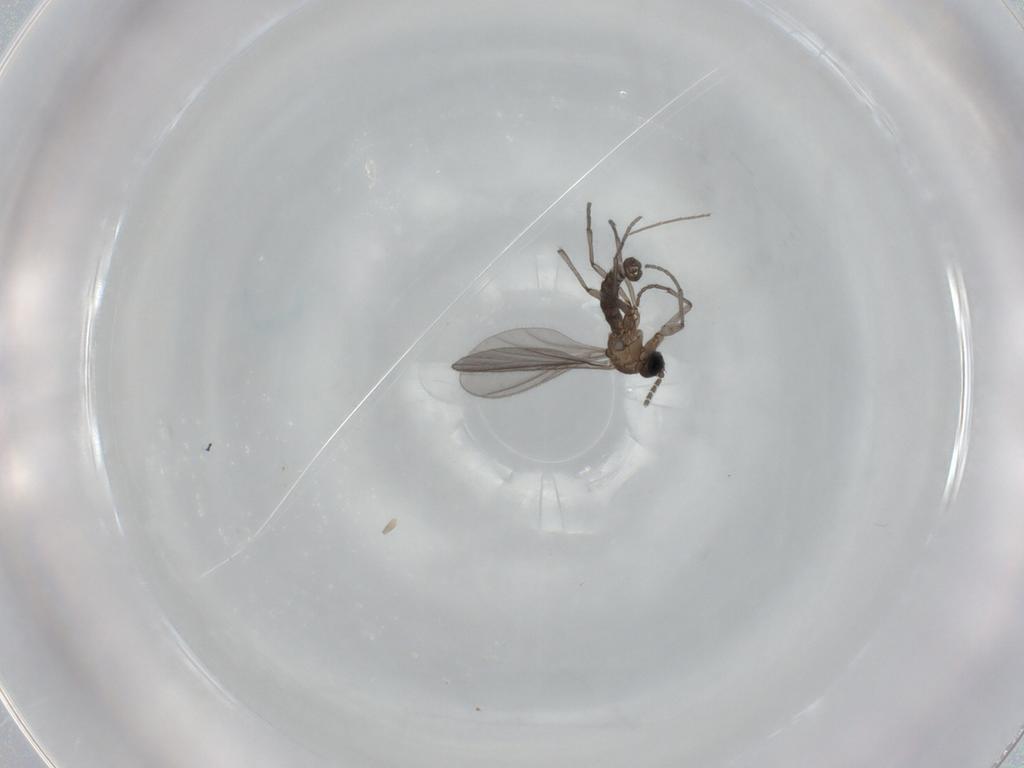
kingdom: Animalia
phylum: Arthropoda
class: Insecta
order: Diptera
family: Sciaridae
